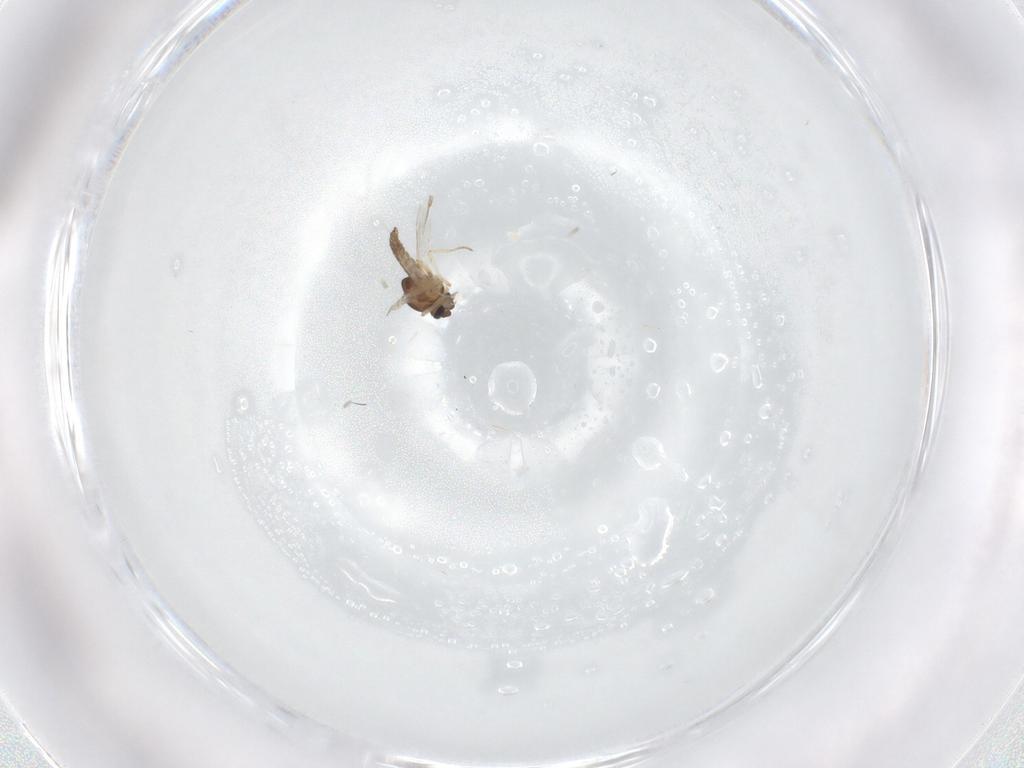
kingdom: Animalia
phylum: Arthropoda
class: Insecta
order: Diptera
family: Ceratopogonidae
